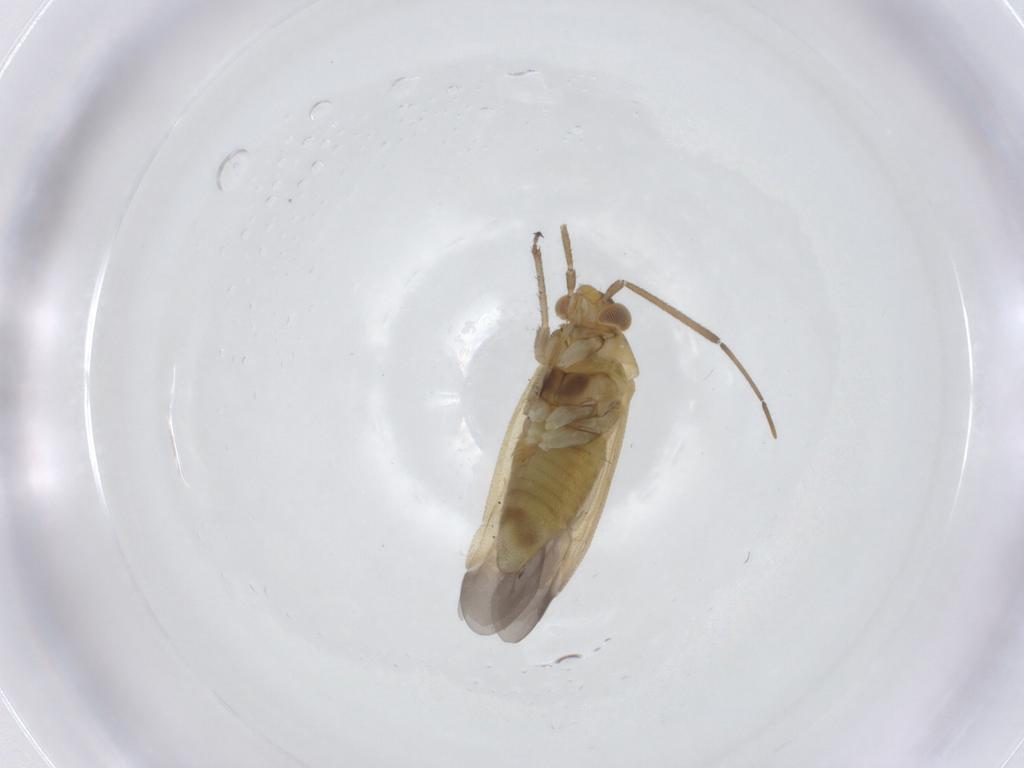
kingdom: Animalia
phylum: Arthropoda
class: Insecta
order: Hemiptera
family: Miridae
